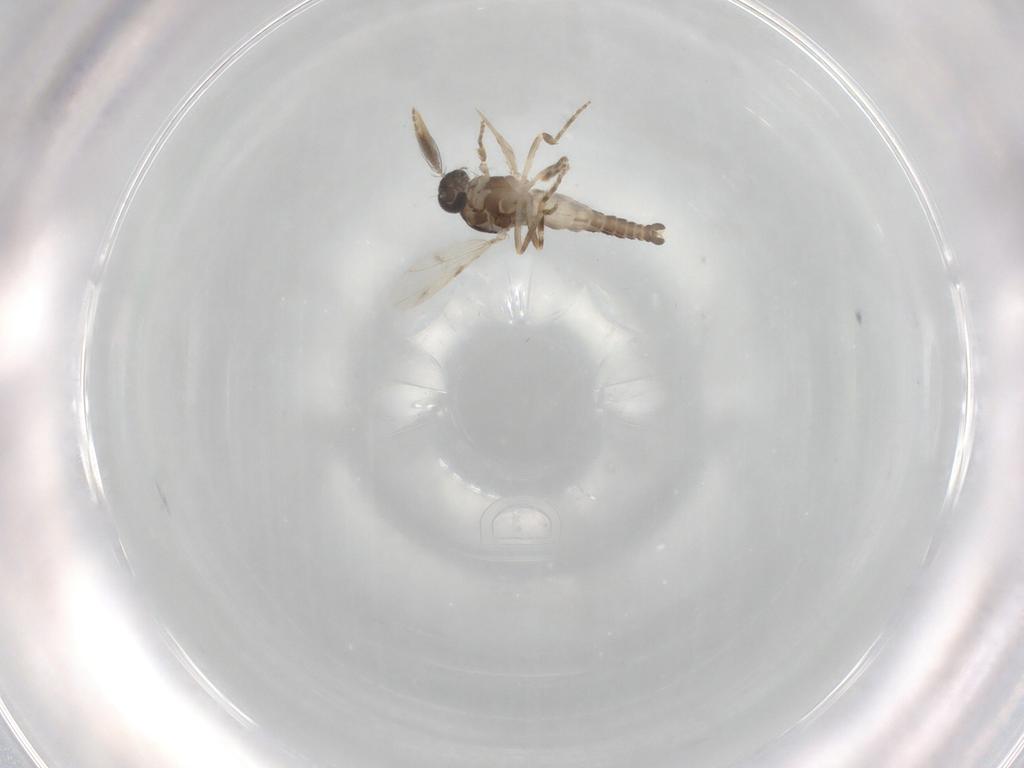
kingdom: Animalia
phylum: Arthropoda
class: Insecta
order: Diptera
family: Ceratopogonidae
